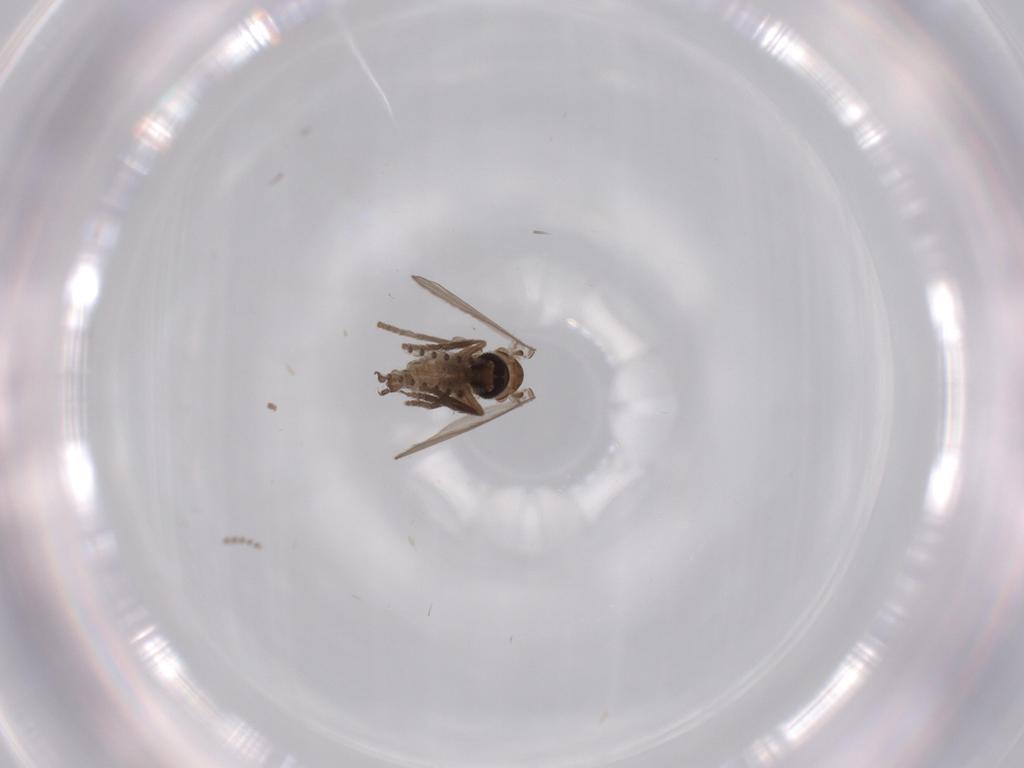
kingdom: Animalia
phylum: Arthropoda
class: Insecta
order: Diptera
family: Psychodidae
